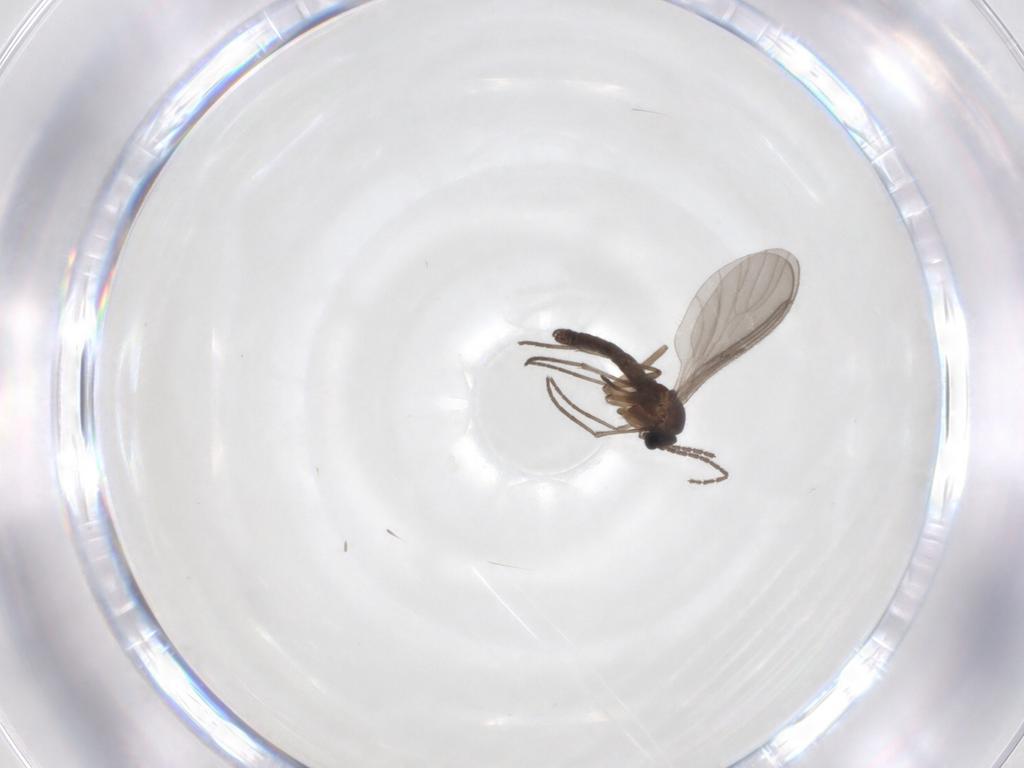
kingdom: Animalia
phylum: Arthropoda
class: Insecta
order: Diptera
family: Sciaridae
